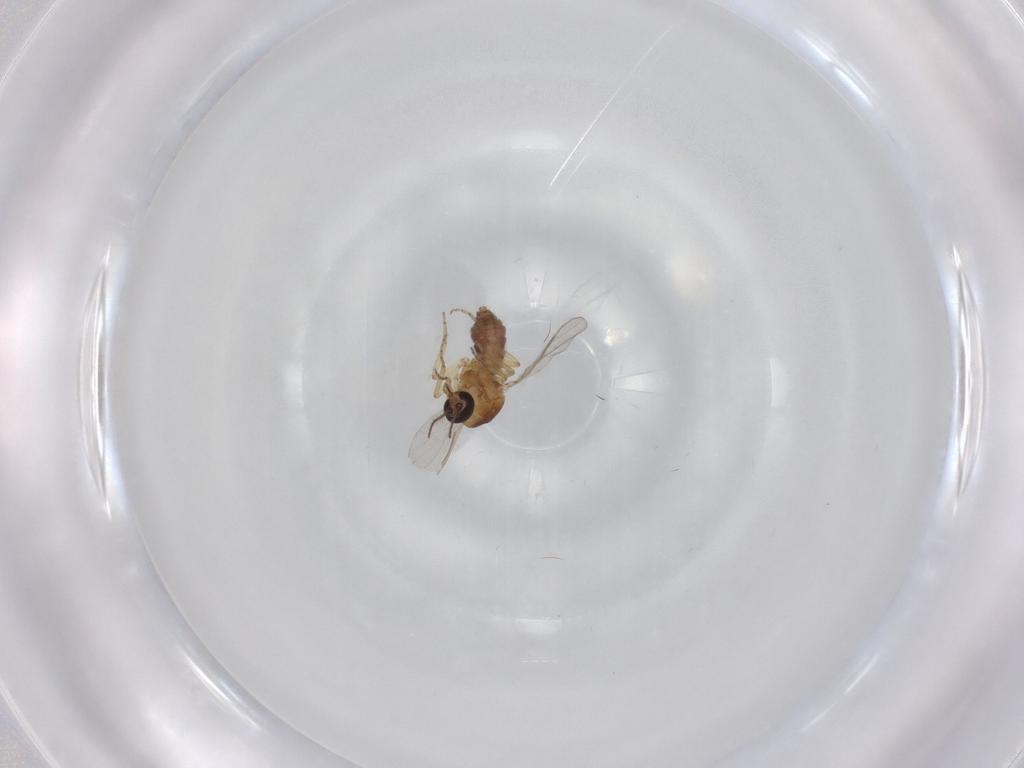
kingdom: Animalia
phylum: Arthropoda
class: Insecta
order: Diptera
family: Ceratopogonidae
